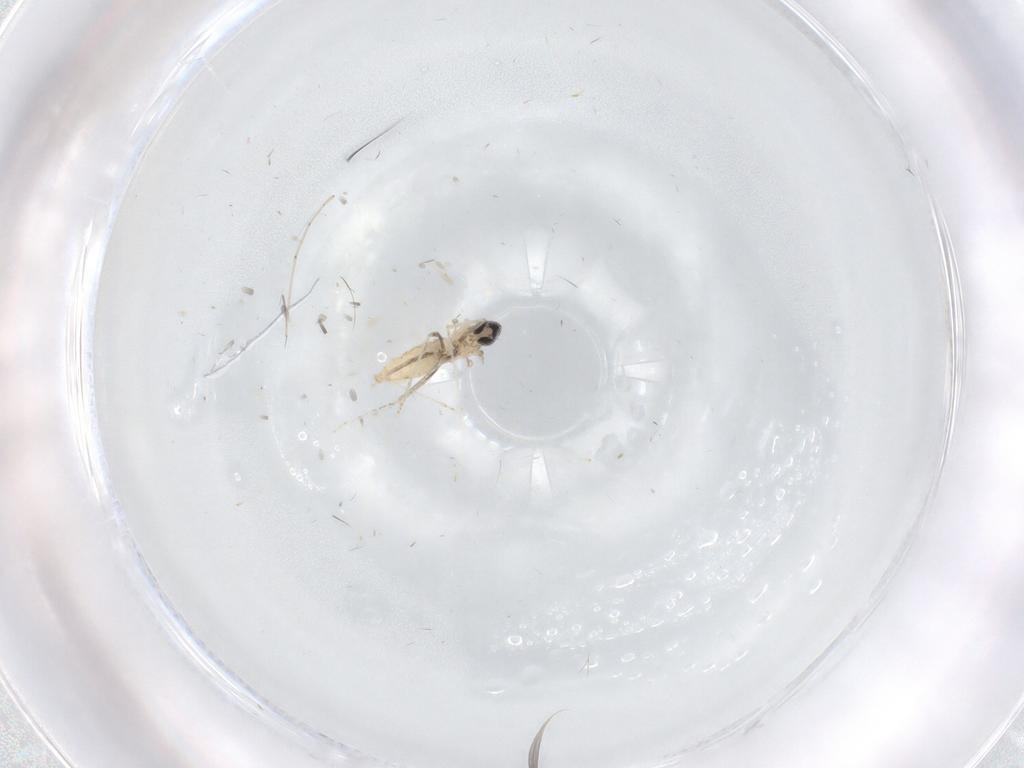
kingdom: Animalia
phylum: Arthropoda
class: Insecta
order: Diptera
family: Cecidomyiidae
